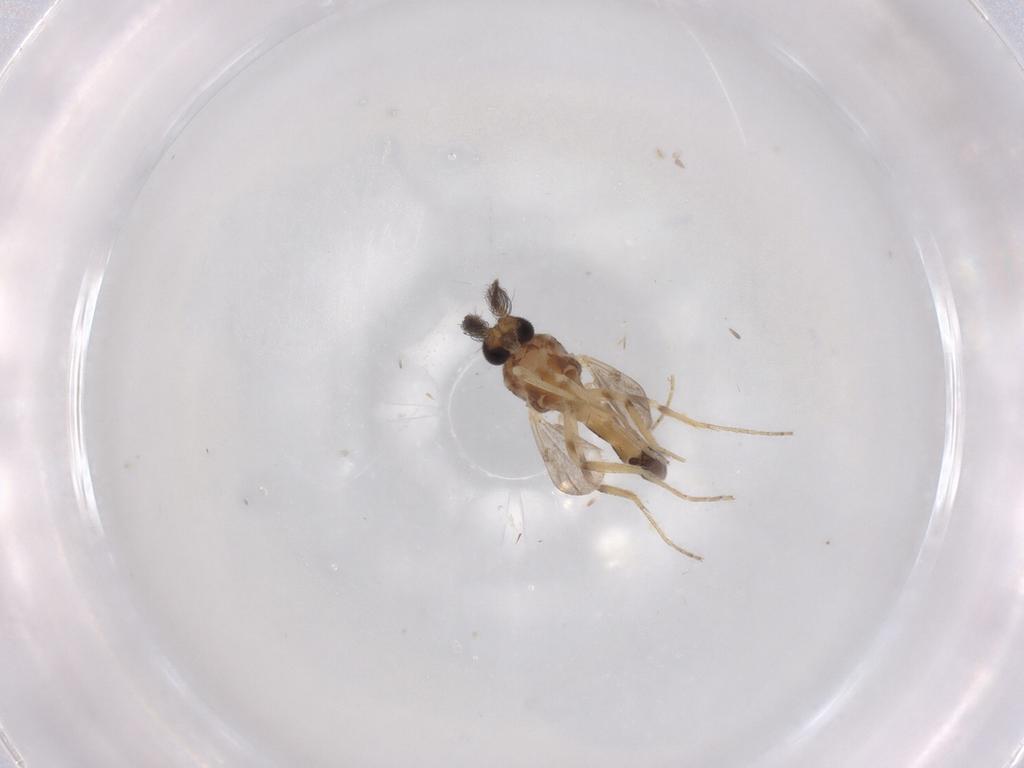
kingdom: Animalia
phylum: Arthropoda
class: Insecta
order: Diptera
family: Ceratopogonidae
